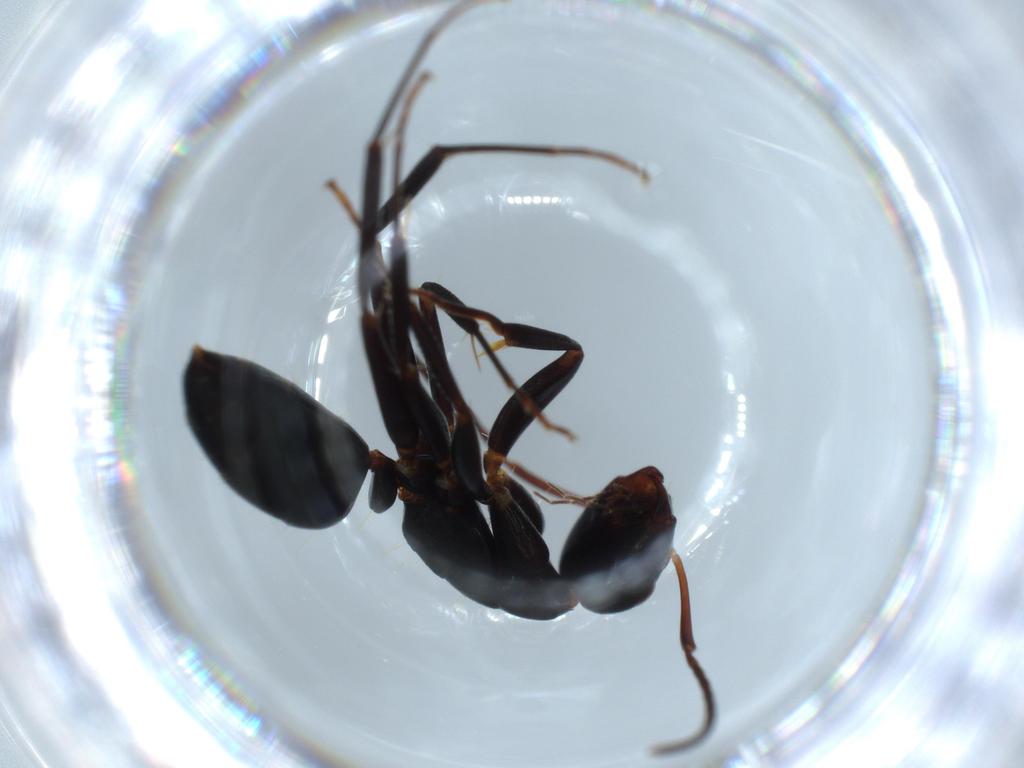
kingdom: Animalia
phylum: Arthropoda
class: Insecta
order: Hymenoptera
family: Formicidae
